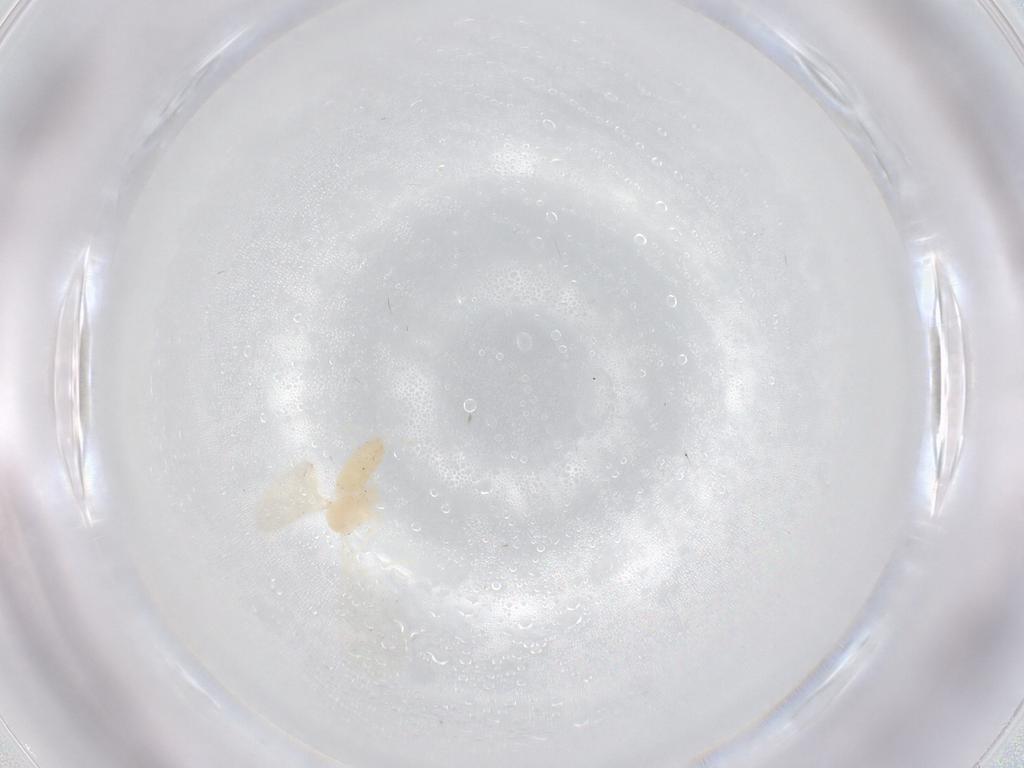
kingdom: Animalia
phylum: Arthropoda
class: Insecta
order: Diptera
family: Cecidomyiidae
